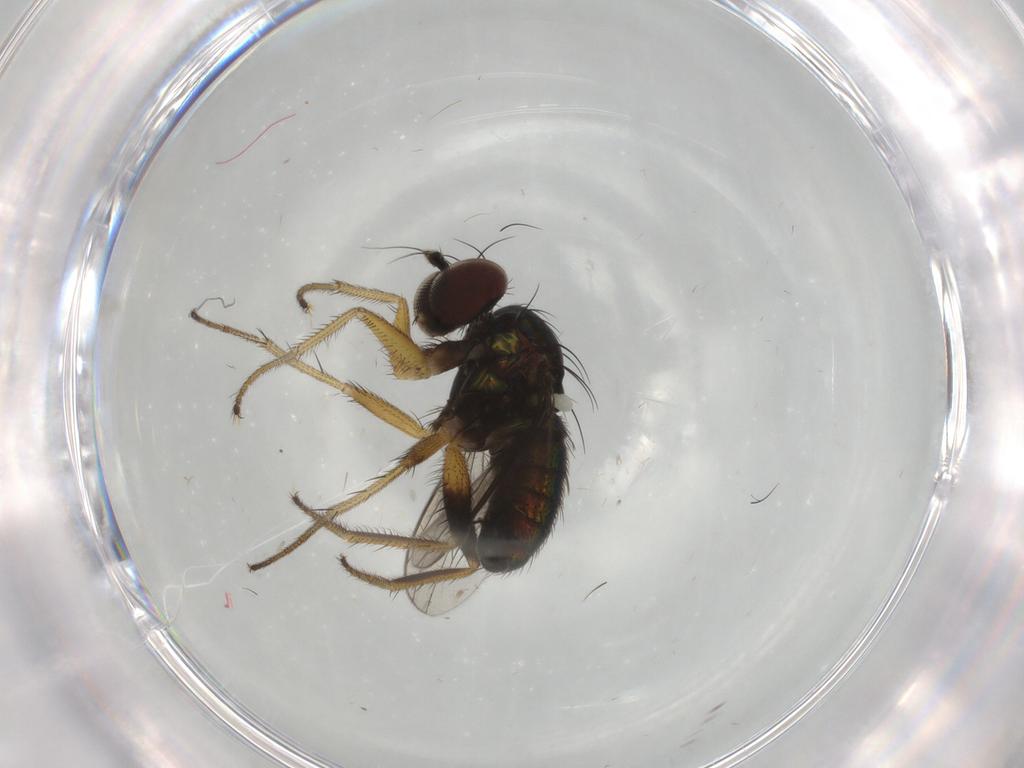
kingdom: Animalia
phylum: Arthropoda
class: Insecta
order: Diptera
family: Dolichopodidae
